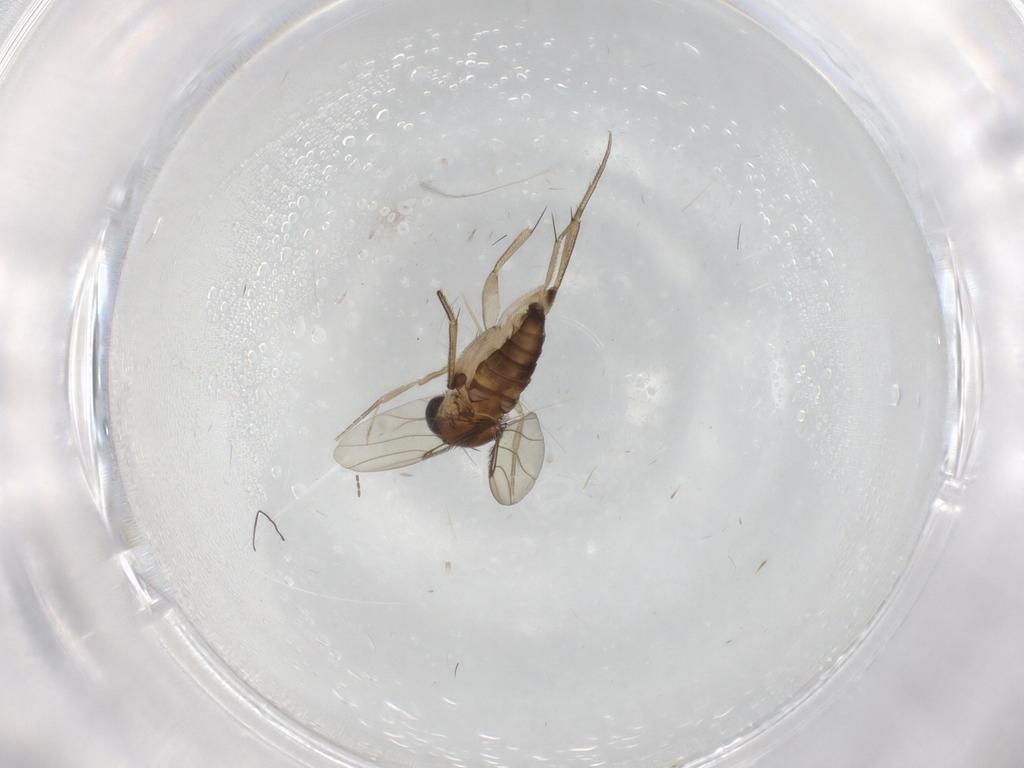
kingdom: Animalia
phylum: Arthropoda
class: Insecta
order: Diptera
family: Phoridae
